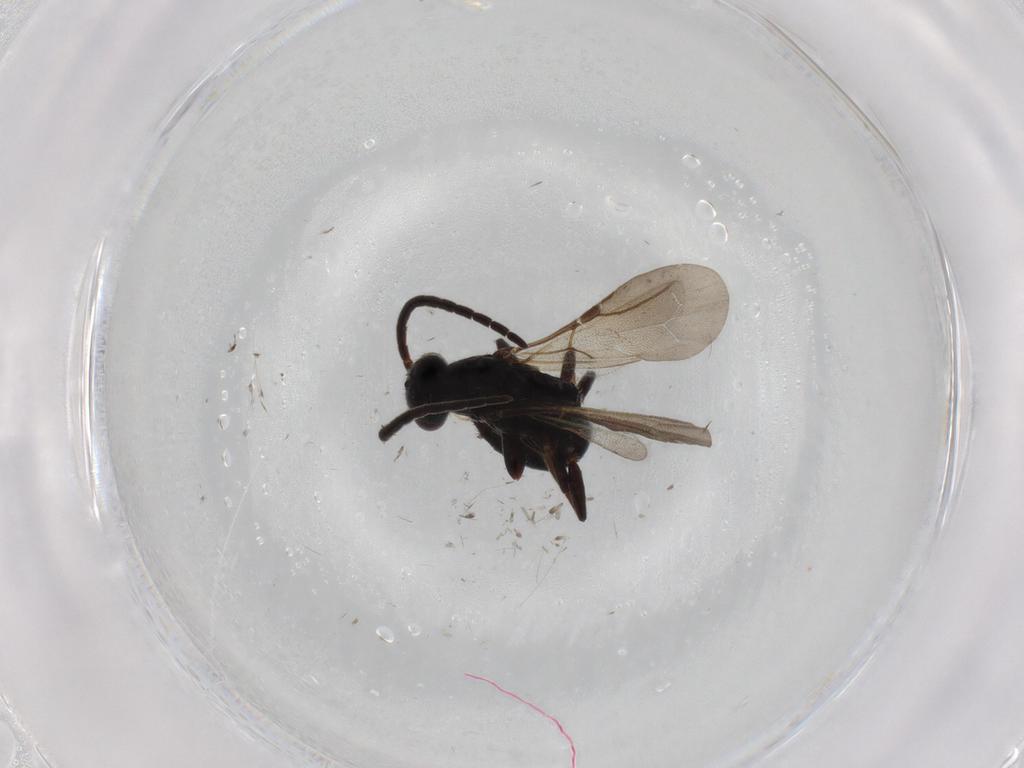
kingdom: Animalia
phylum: Arthropoda
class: Insecta
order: Hymenoptera
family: Bethylidae
